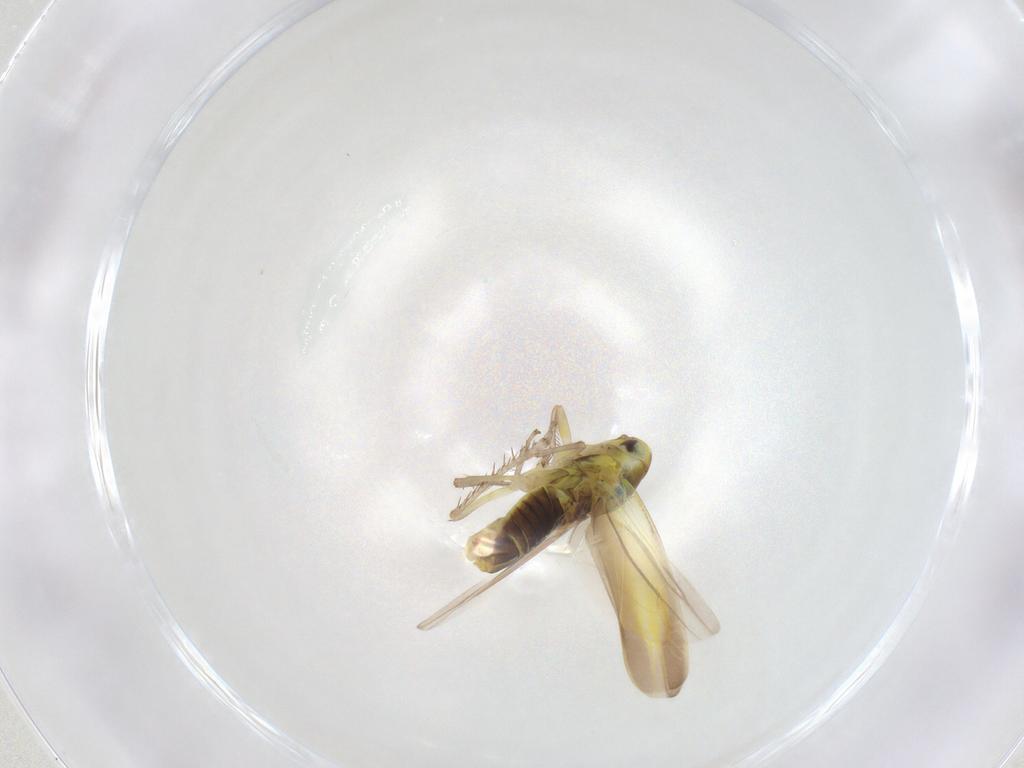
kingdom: Animalia
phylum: Arthropoda
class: Insecta
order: Hemiptera
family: Cicadellidae
